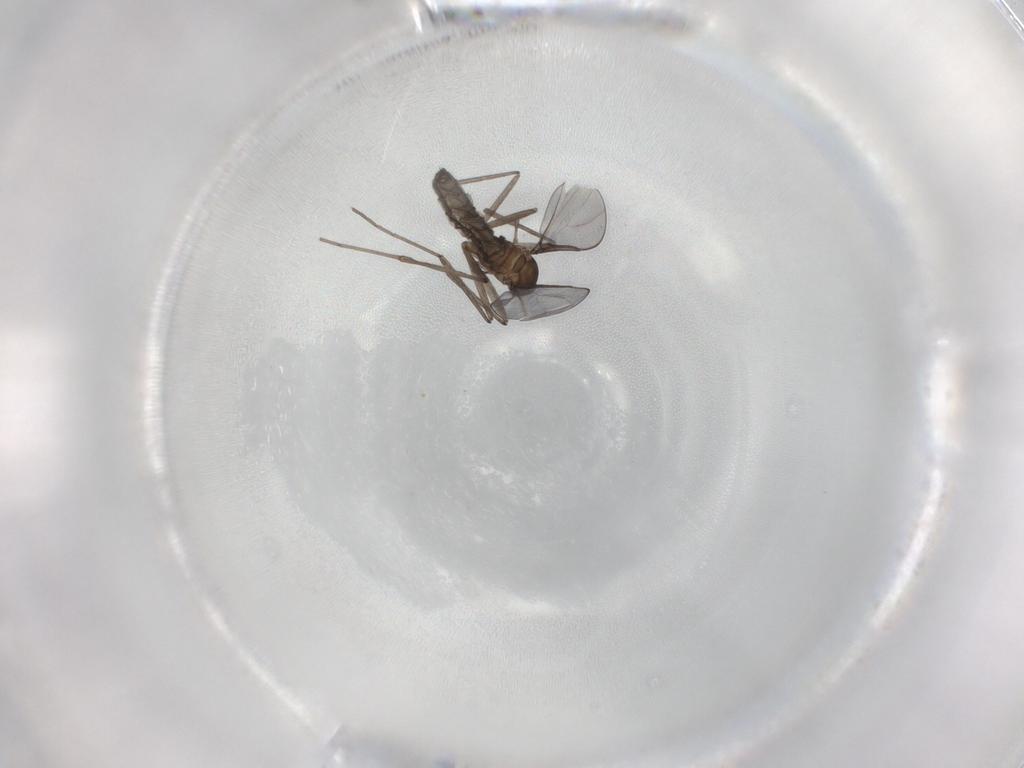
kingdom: Animalia
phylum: Arthropoda
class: Insecta
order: Diptera
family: Cecidomyiidae
